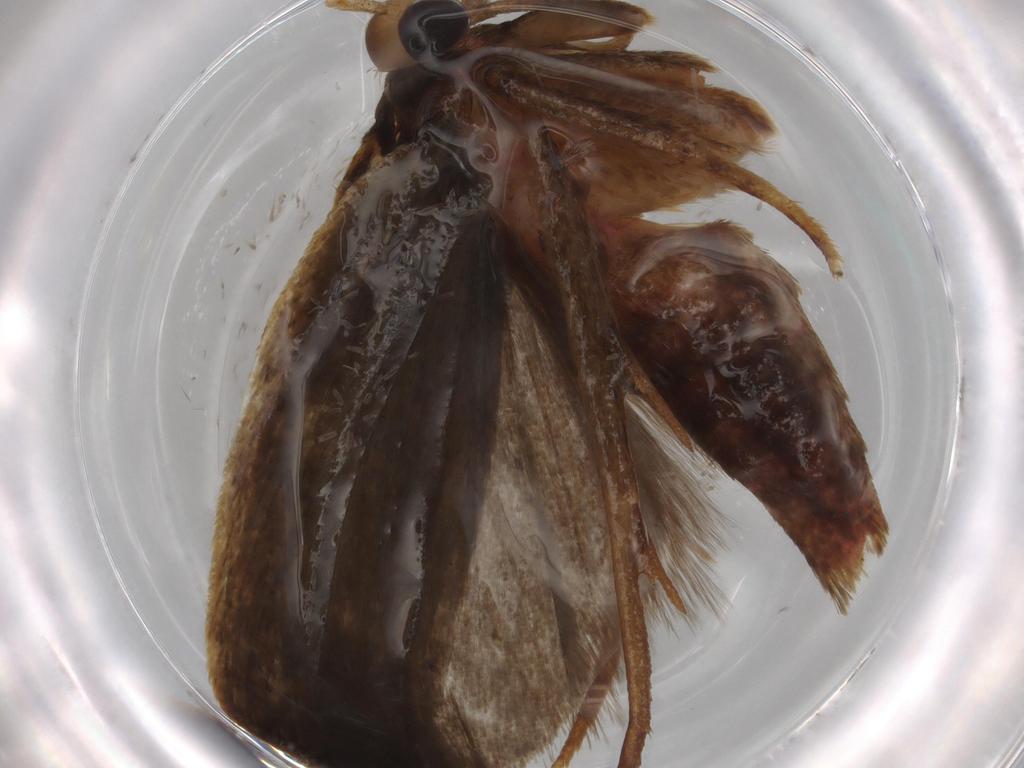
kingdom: Animalia
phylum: Arthropoda
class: Insecta
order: Lepidoptera
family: Autostichidae
